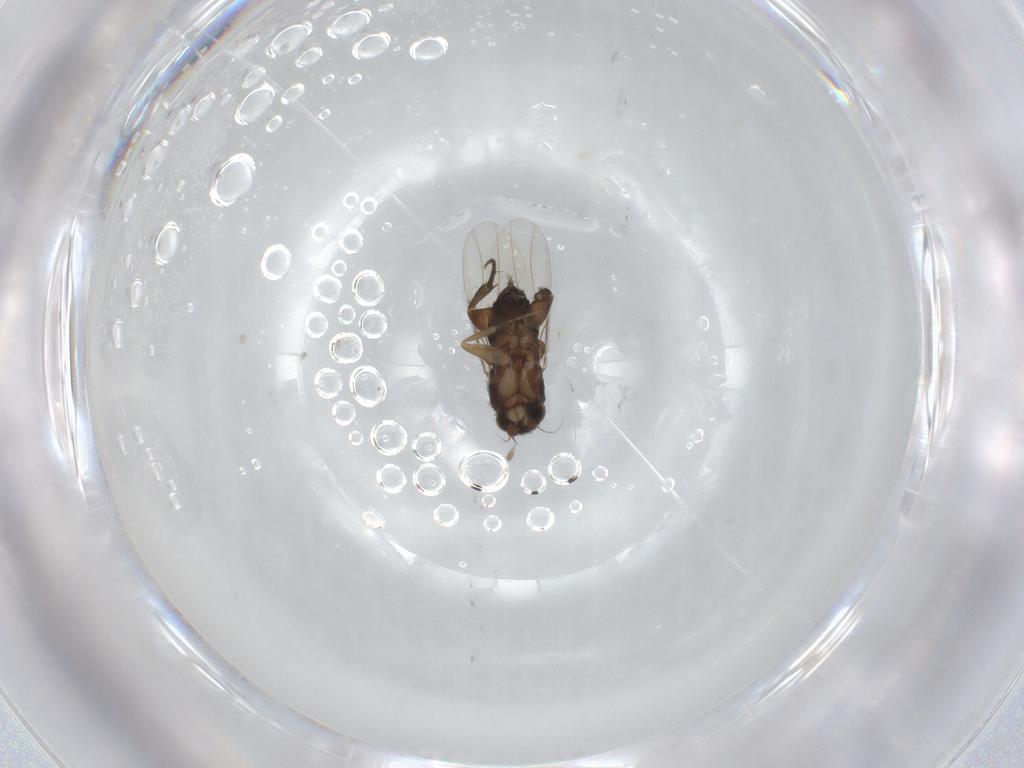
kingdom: Animalia
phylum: Arthropoda
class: Insecta
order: Diptera
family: Phoridae
